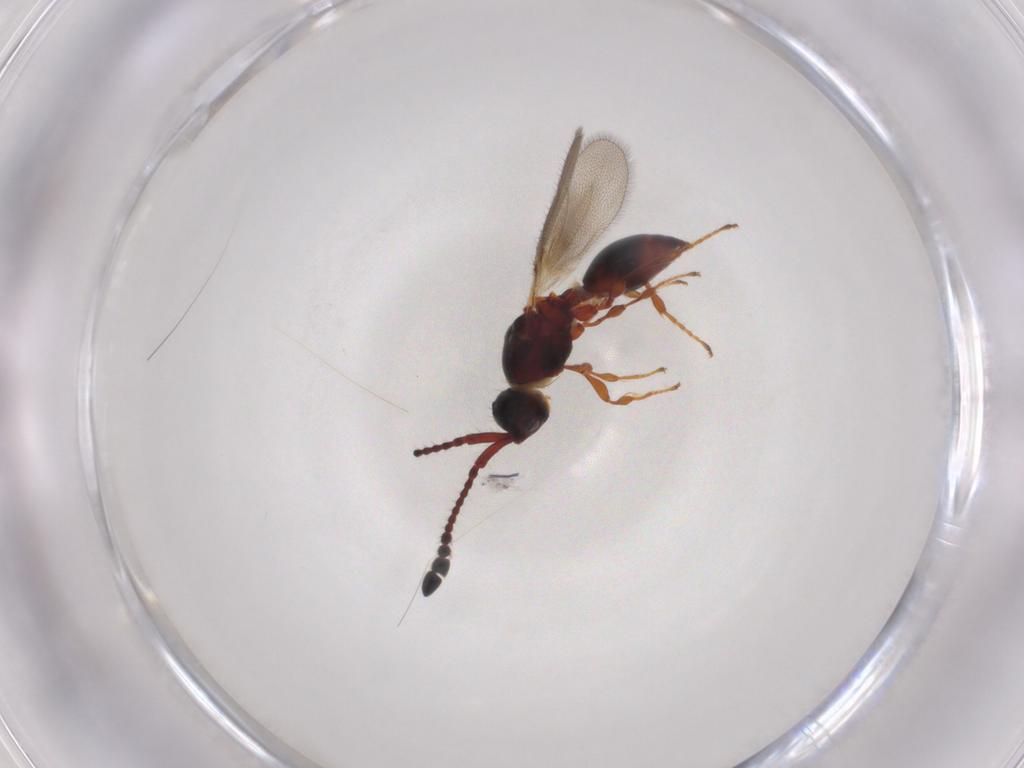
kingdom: Animalia
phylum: Arthropoda
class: Insecta
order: Hymenoptera
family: Diapriidae
